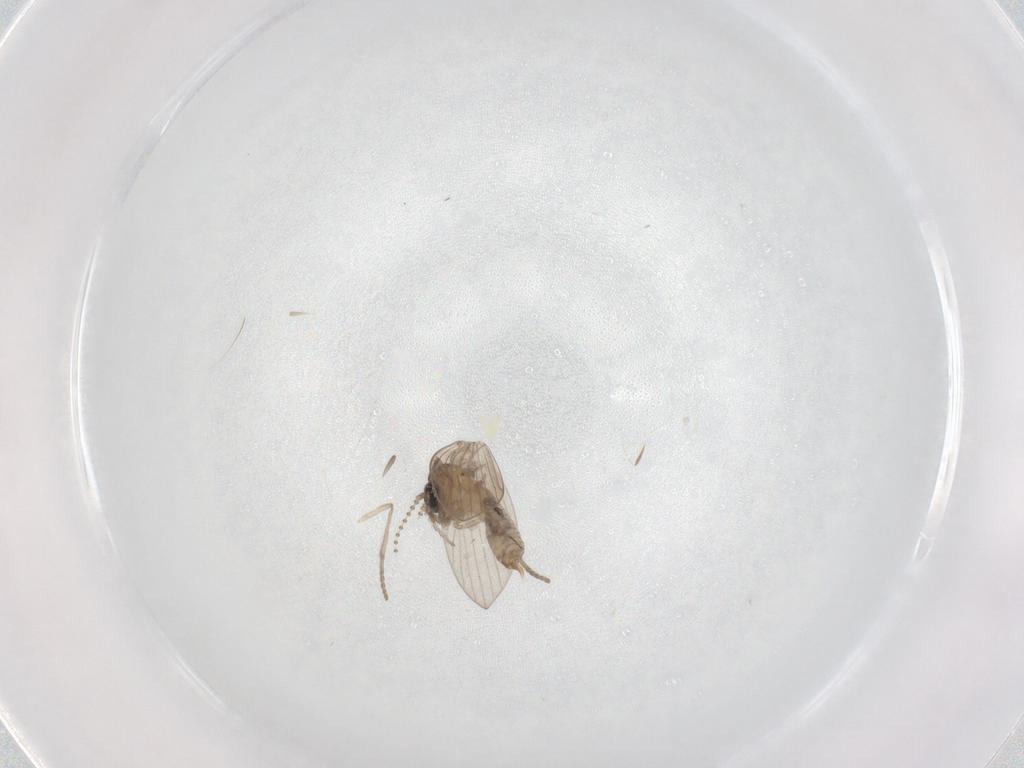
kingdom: Animalia
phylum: Arthropoda
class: Insecta
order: Diptera
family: Psychodidae
